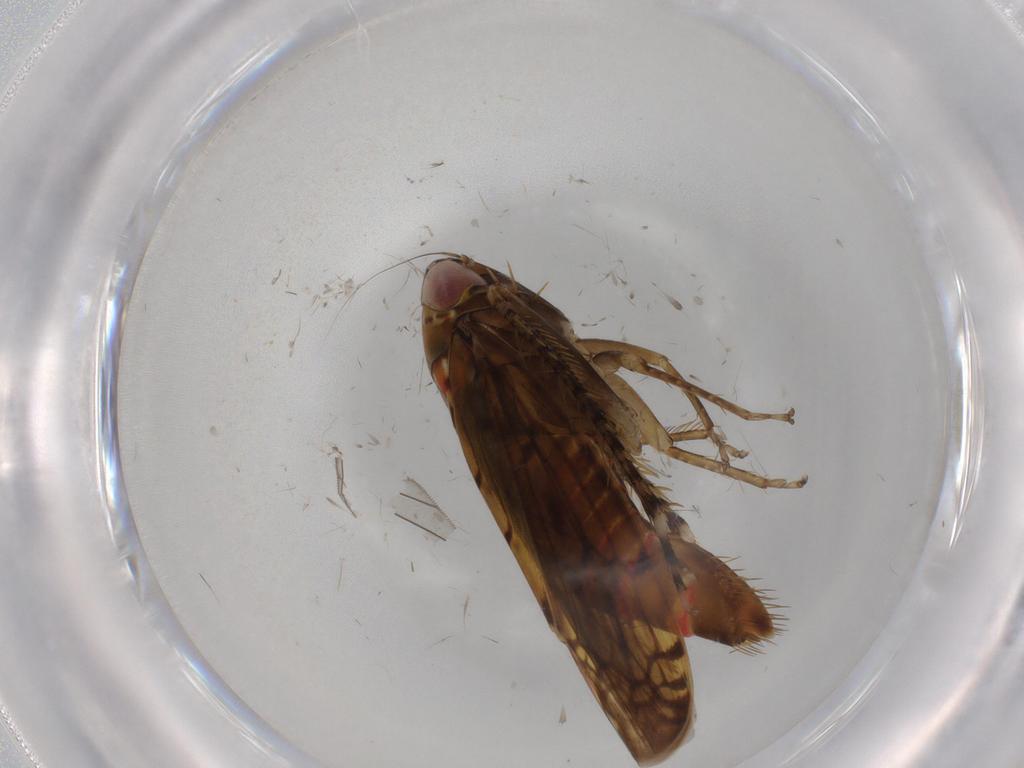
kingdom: Animalia
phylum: Arthropoda
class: Insecta
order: Hemiptera
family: Cicadellidae
